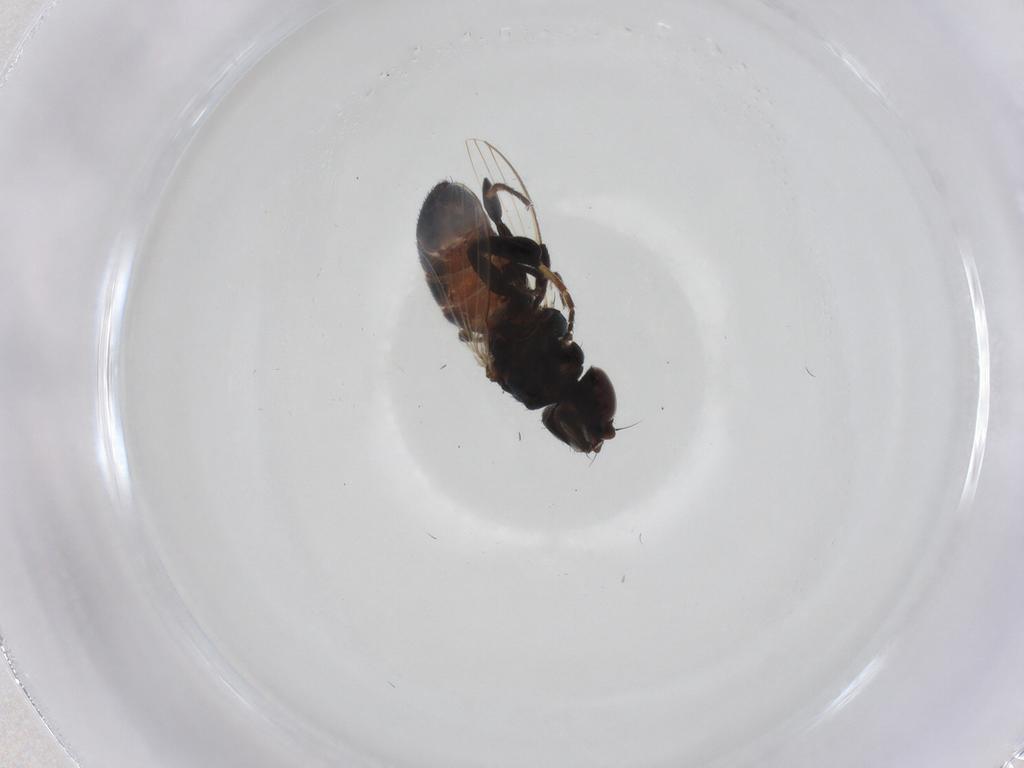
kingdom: Animalia
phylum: Arthropoda
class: Insecta
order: Diptera
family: Milichiidae
